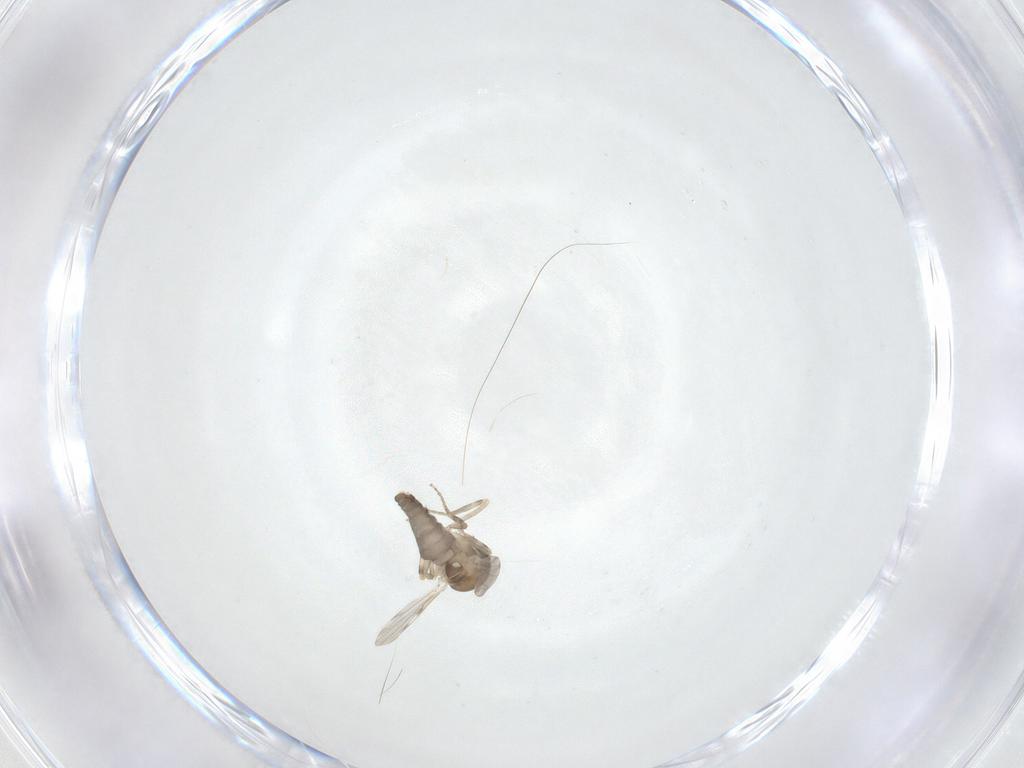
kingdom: Animalia
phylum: Arthropoda
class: Insecta
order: Diptera
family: Ceratopogonidae
